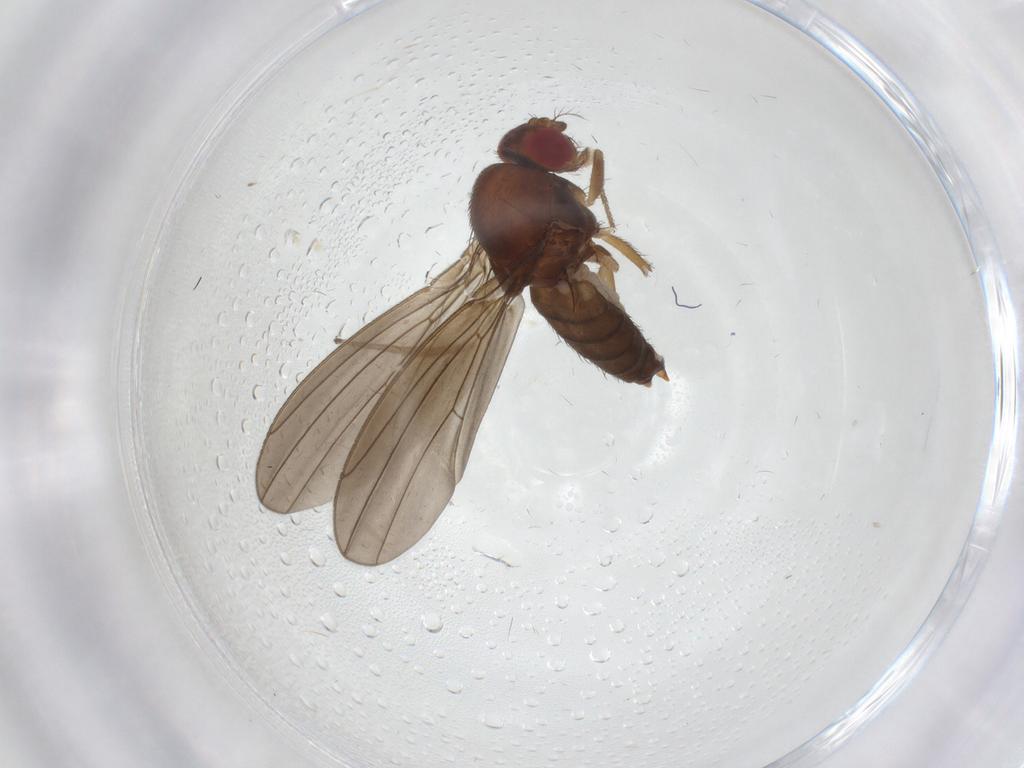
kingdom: Animalia
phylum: Arthropoda
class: Insecta
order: Diptera
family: Drosophilidae
